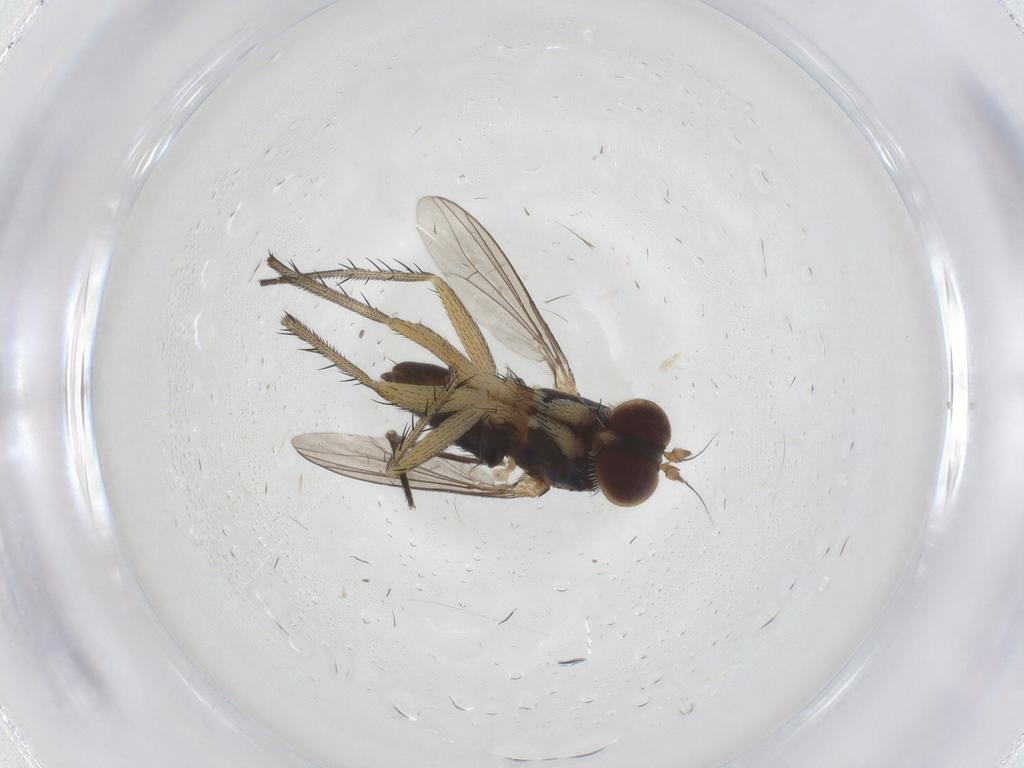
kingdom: Animalia
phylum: Arthropoda
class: Insecta
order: Diptera
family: Dolichopodidae
